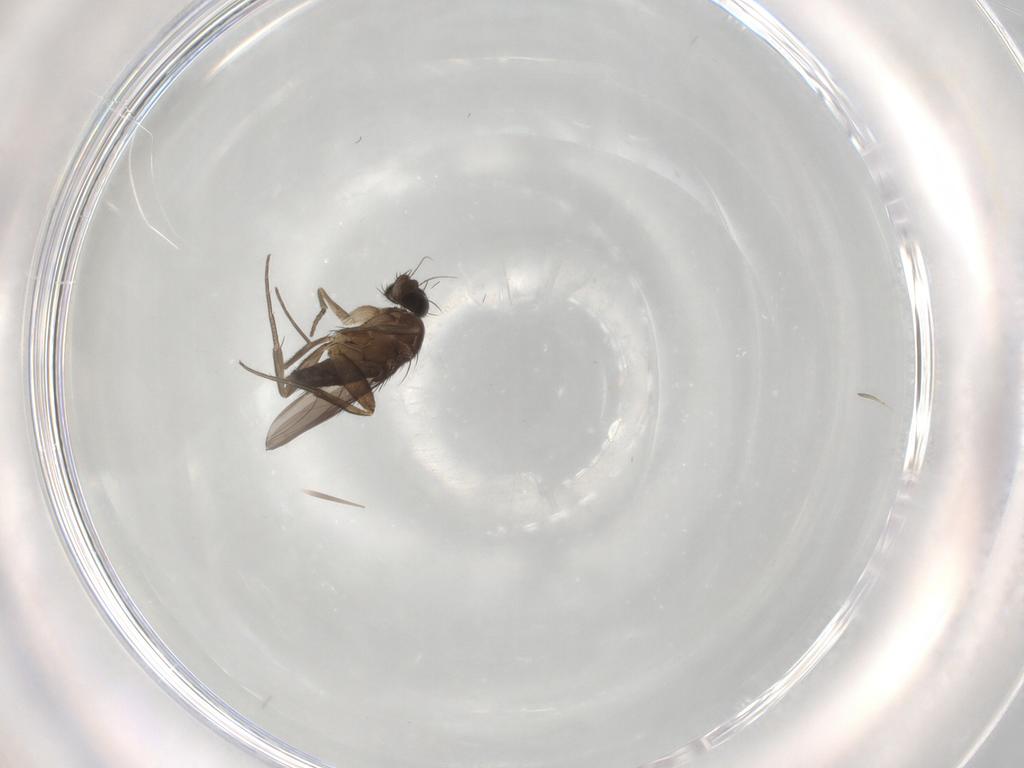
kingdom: Animalia
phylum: Arthropoda
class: Insecta
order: Diptera
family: Phoridae
